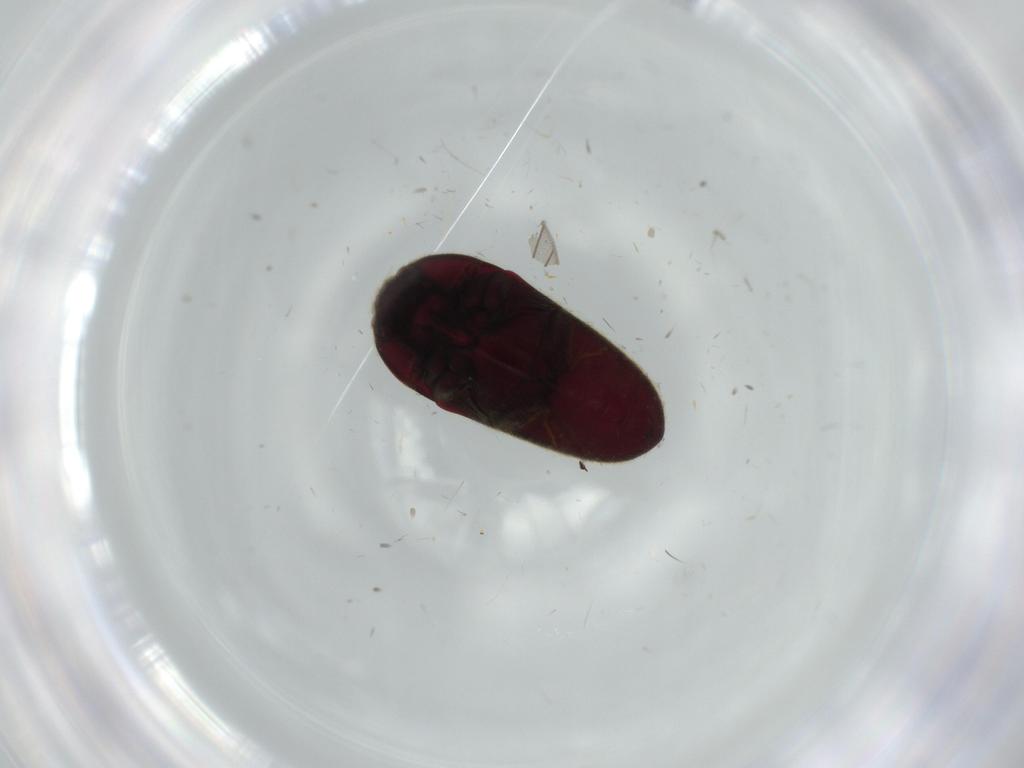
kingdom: Animalia
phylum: Arthropoda
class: Insecta
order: Coleoptera
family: Throscidae
